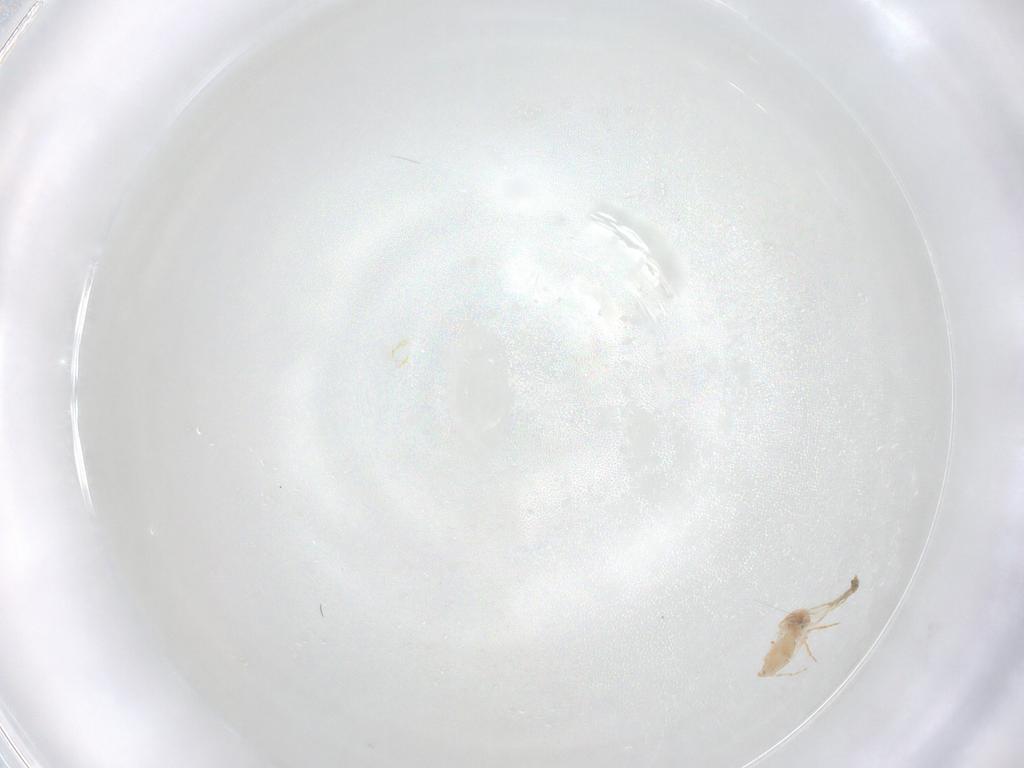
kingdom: Animalia
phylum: Arthropoda
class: Insecta
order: Hemiptera
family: Aleyrodidae
